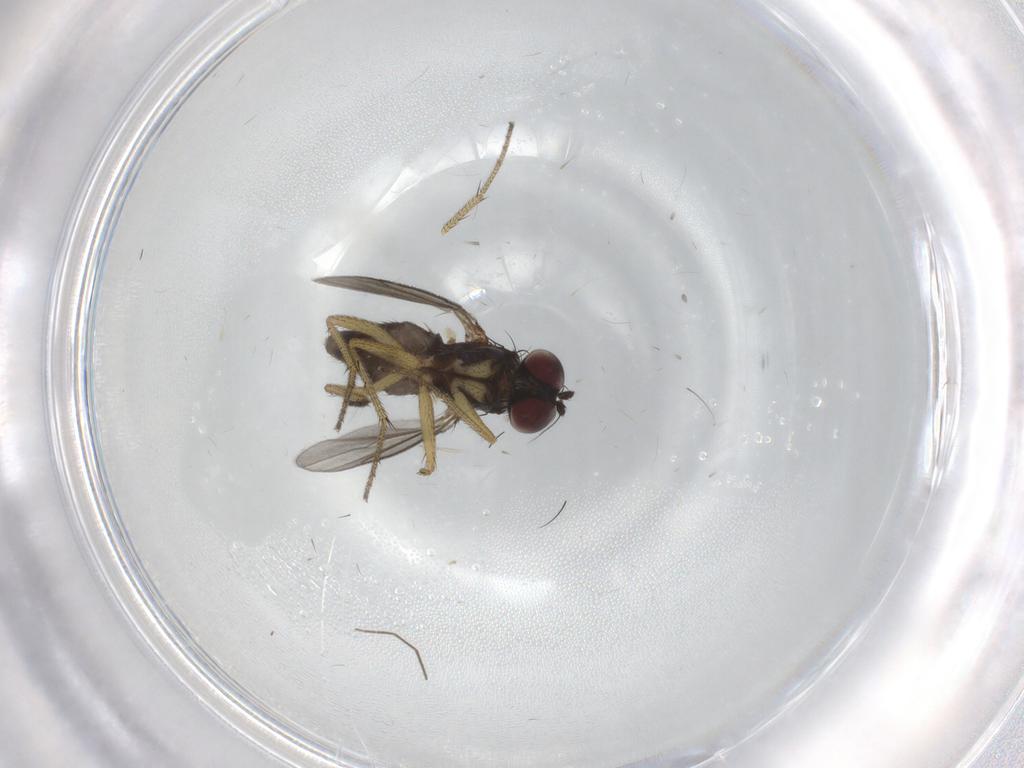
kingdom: Animalia
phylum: Arthropoda
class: Insecta
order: Diptera
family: Chironomidae
